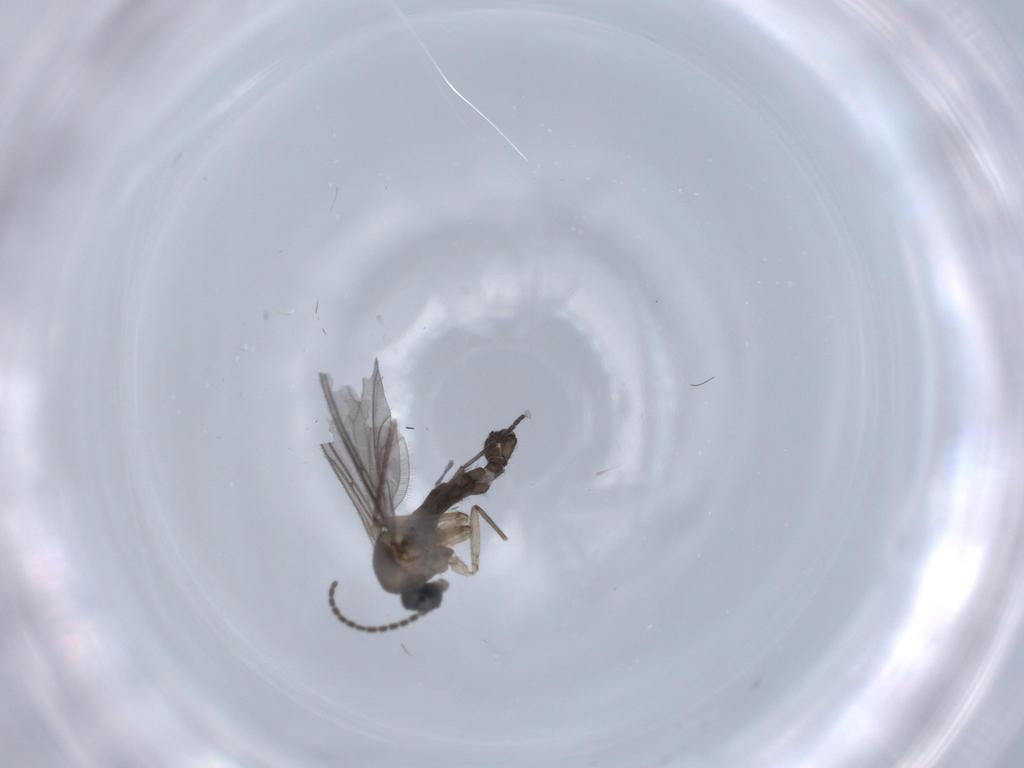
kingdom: Animalia
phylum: Arthropoda
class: Insecta
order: Diptera
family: Sciaridae
